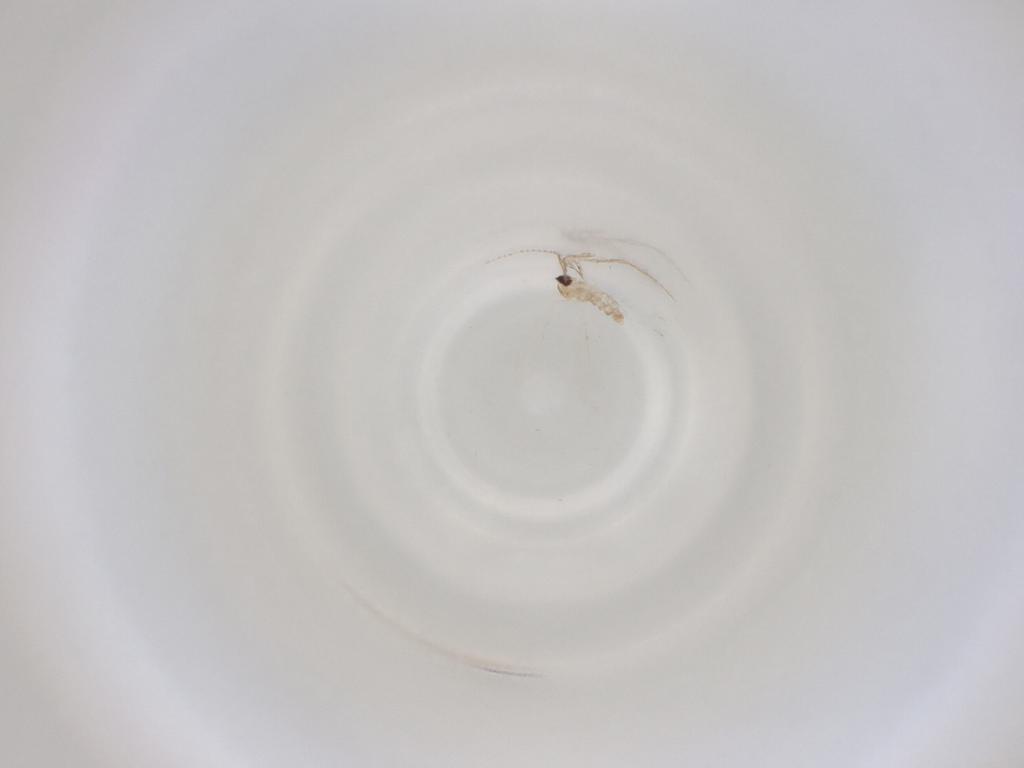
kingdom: Animalia
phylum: Arthropoda
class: Insecta
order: Diptera
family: Cecidomyiidae
